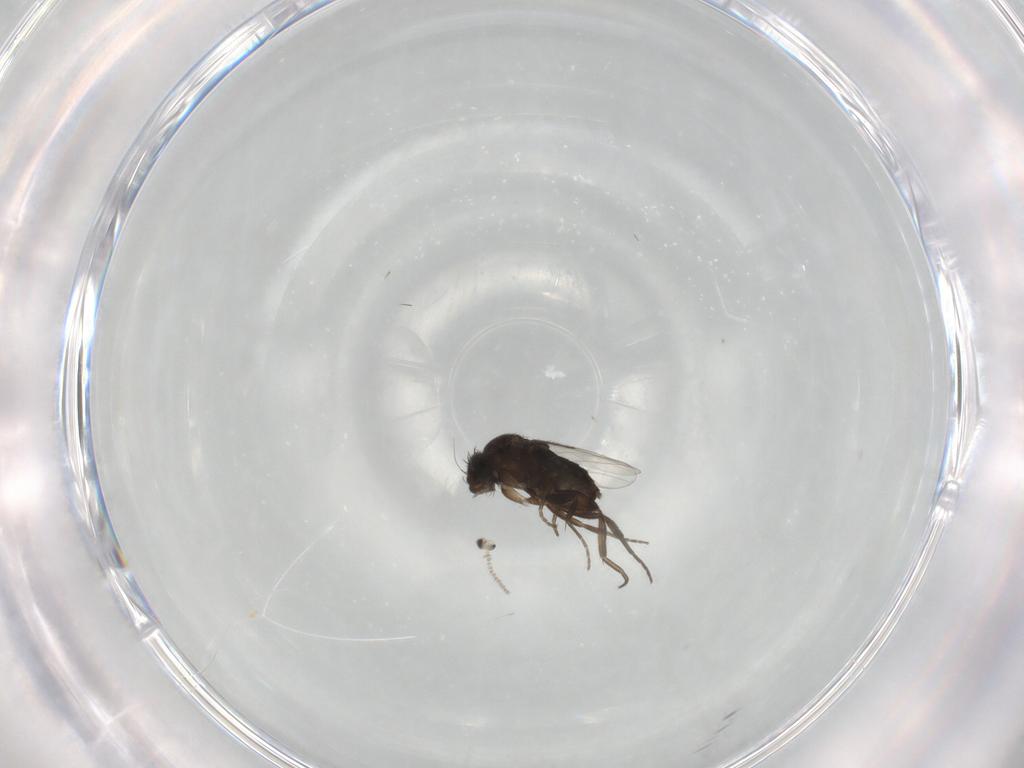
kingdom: Animalia
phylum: Arthropoda
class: Insecta
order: Diptera
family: Phoridae
